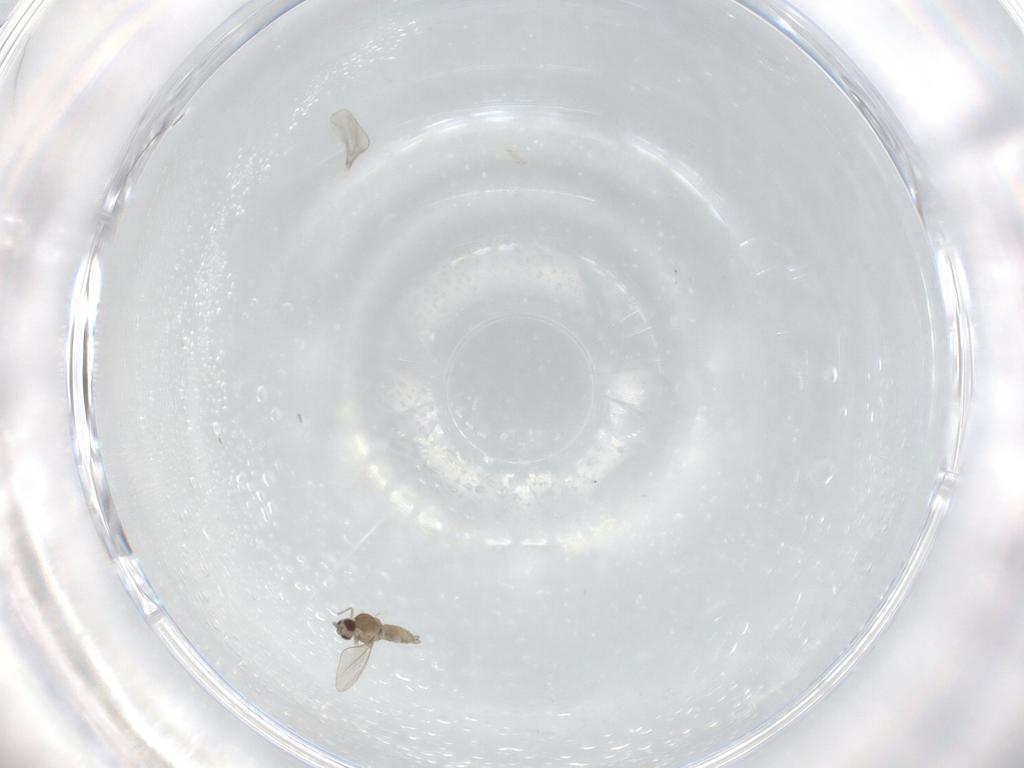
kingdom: Animalia
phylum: Arthropoda
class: Insecta
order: Diptera
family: Cecidomyiidae
